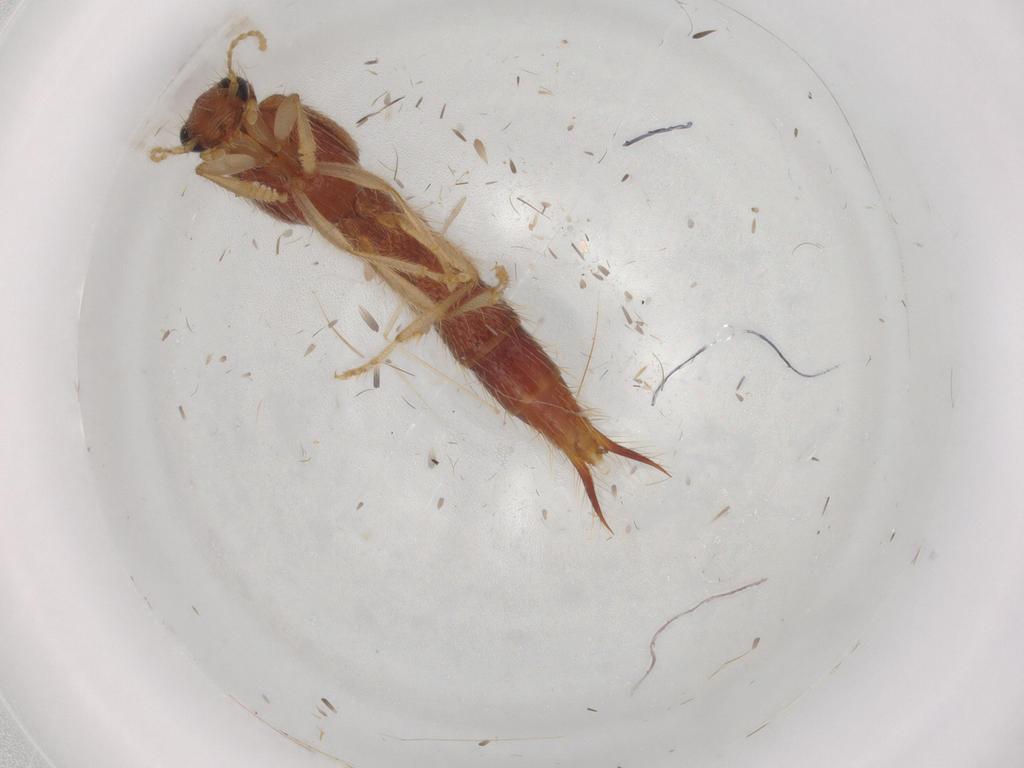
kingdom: Animalia
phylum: Arthropoda
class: Insecta
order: Coleoptera
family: Staphylinidae
